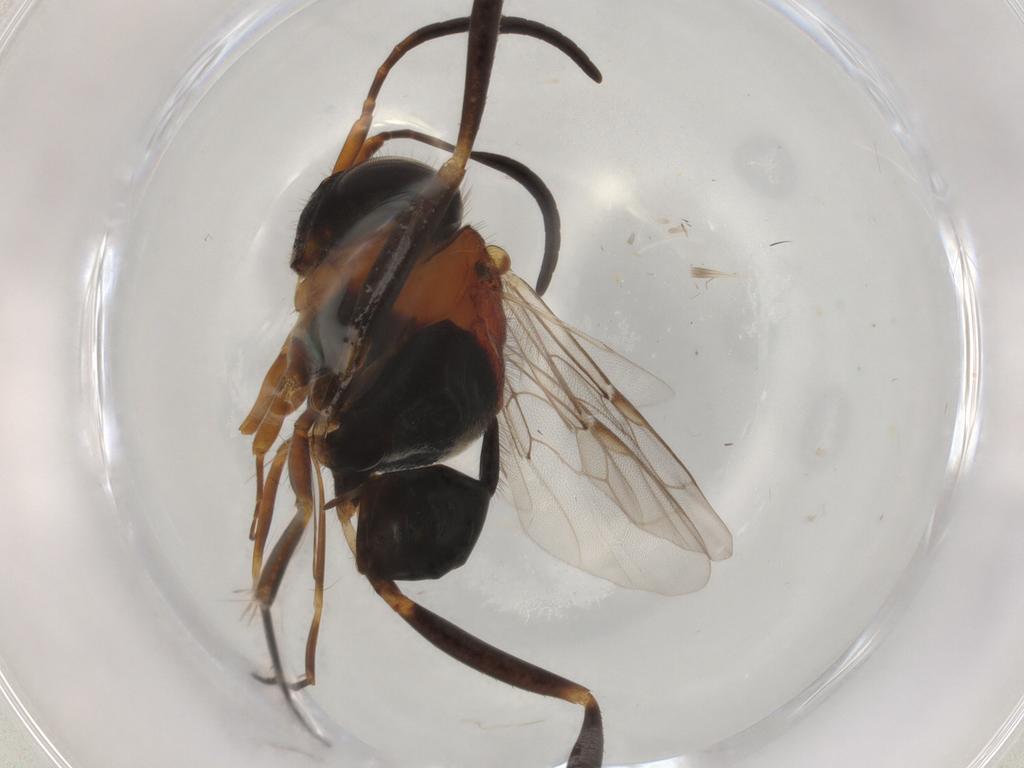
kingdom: Animalia
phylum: Arthropoda
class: Insecta
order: Hymenoptera
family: Evaniidae
